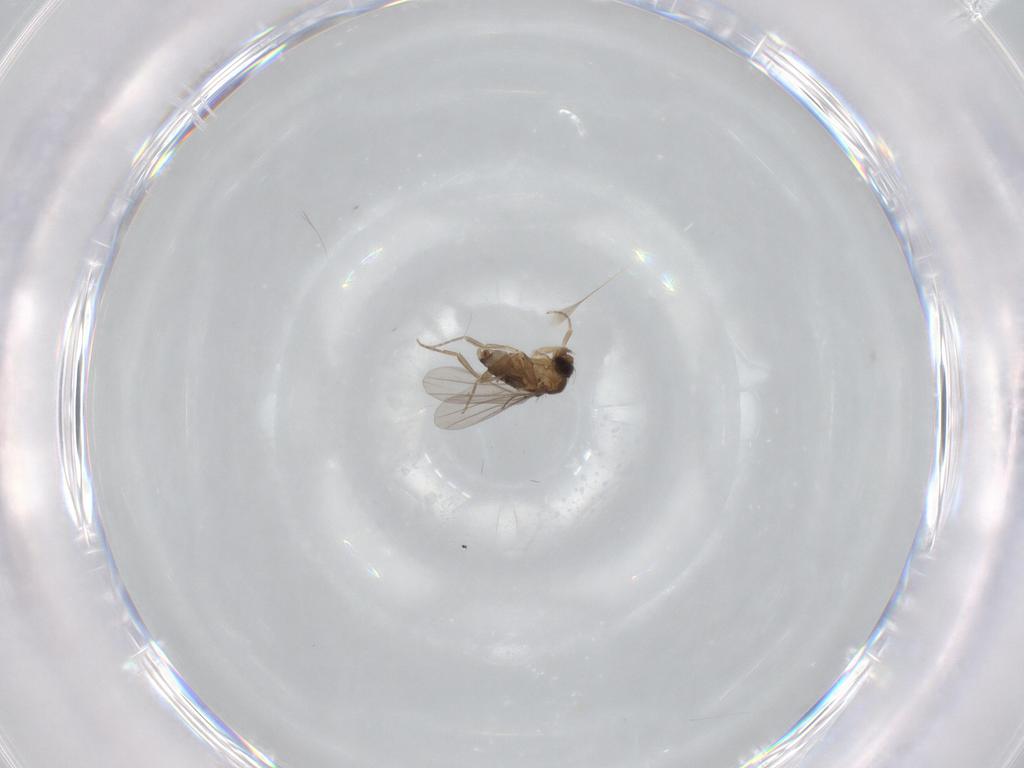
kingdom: Animalia
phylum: Arthropoda
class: Insecta
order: Diptera
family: Phoridae
